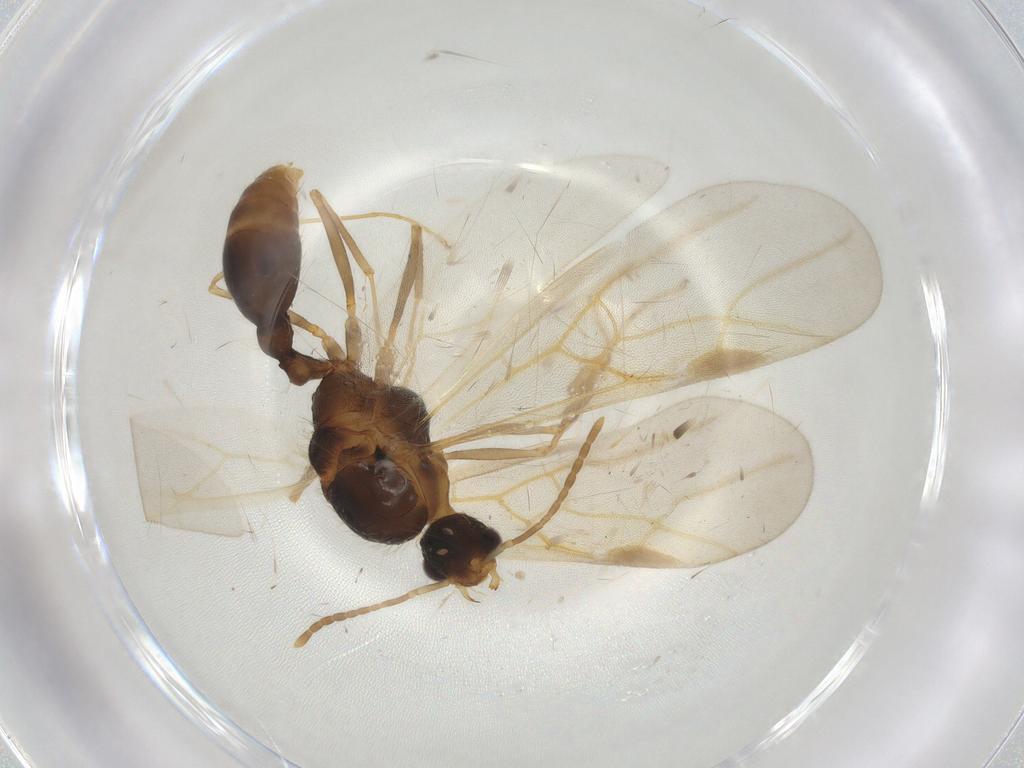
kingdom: Animalia
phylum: Arthropoda
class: Insecta
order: Hymenoptera
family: Formicidae
